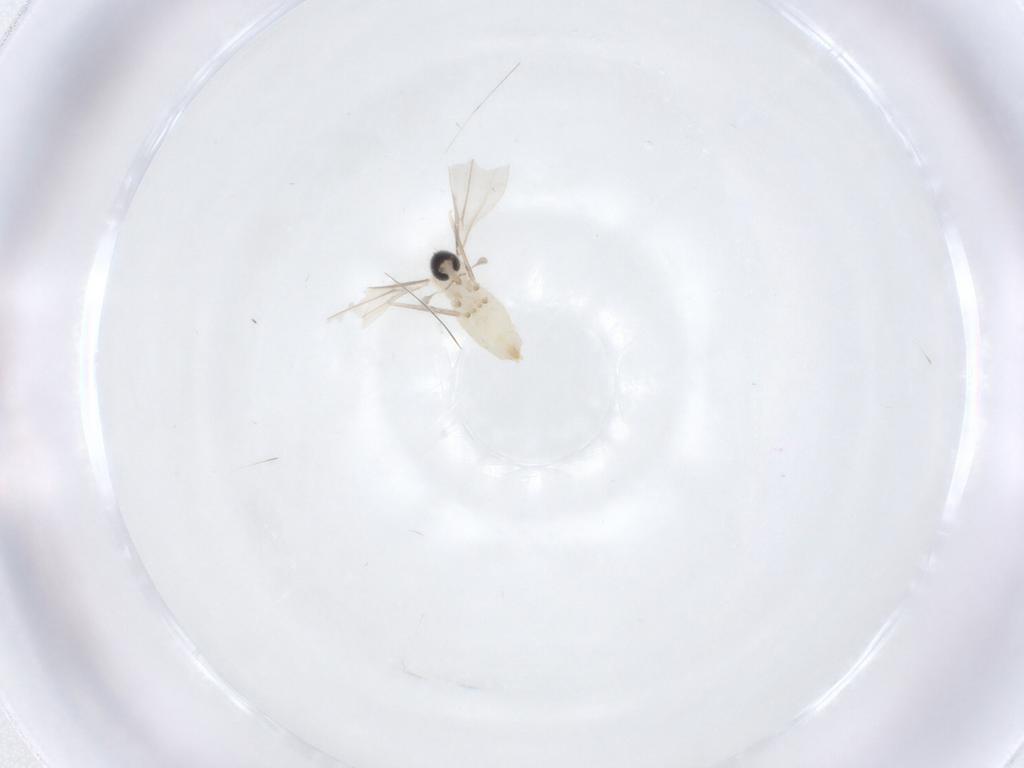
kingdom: Animalia
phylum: Arthropoda
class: Insecta
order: Diptera
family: Cecidomyiidae
